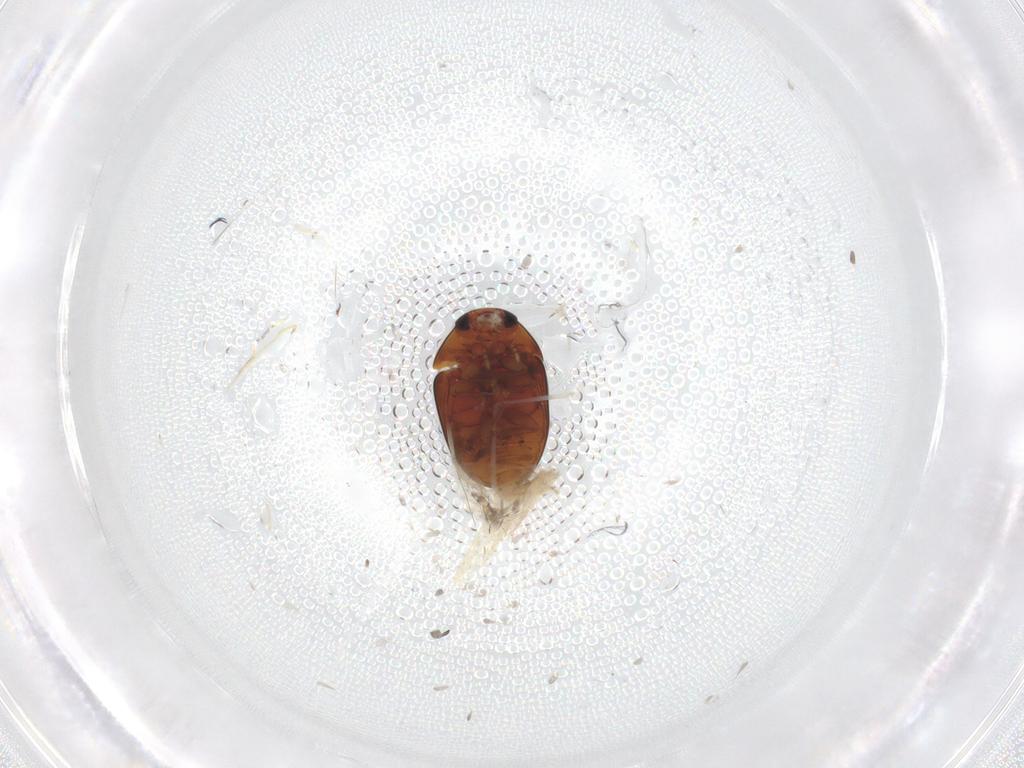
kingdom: Animalia
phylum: Arthropoda
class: Insecta
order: Coleoptera
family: Phalacridae
